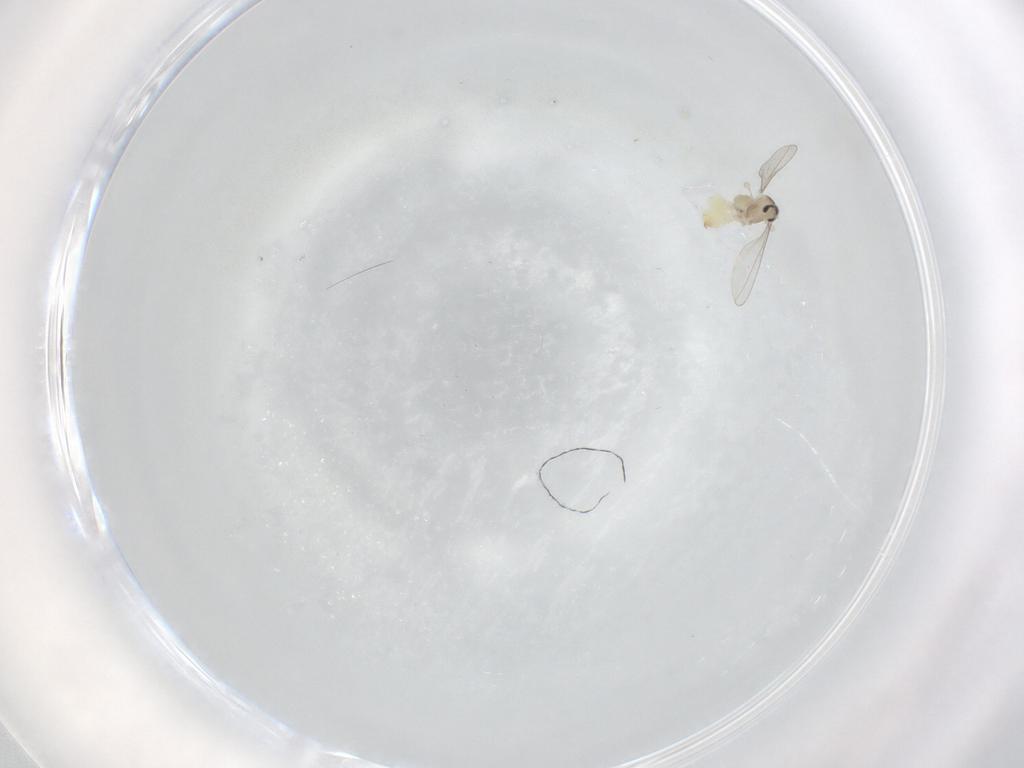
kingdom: Animalia
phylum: Arthropoda
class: Insecta
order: Diptera
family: Cecidomyiidae
